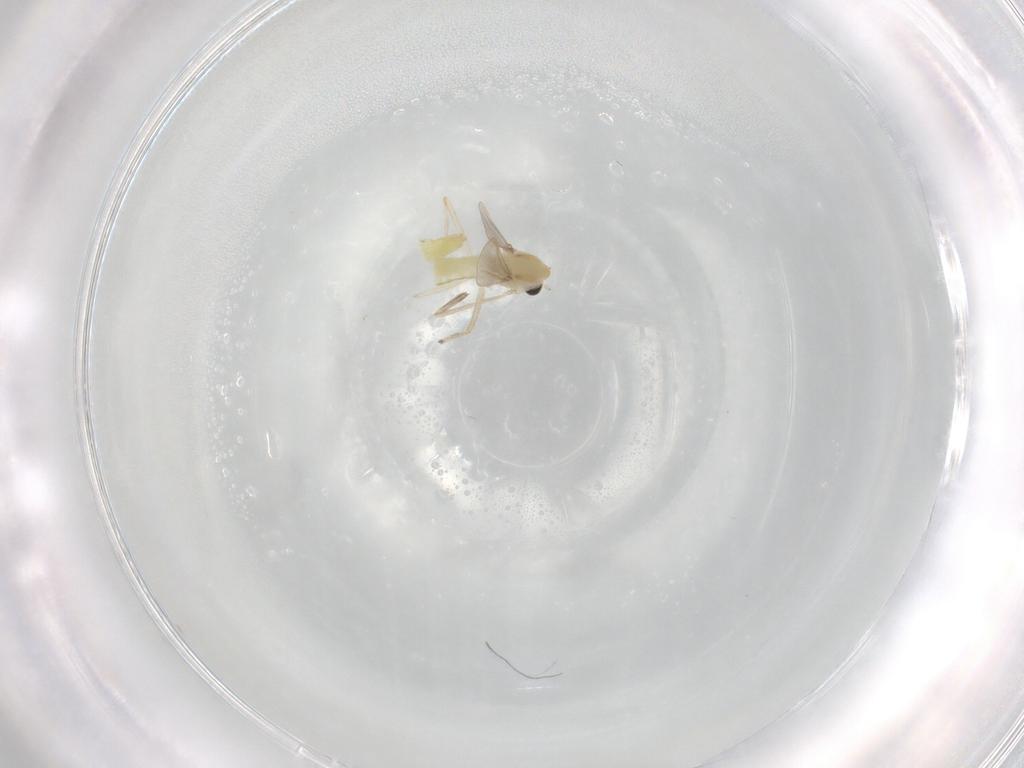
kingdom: Animalia
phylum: Arthropoda
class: Insecta
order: Diptera
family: Chironomidae
